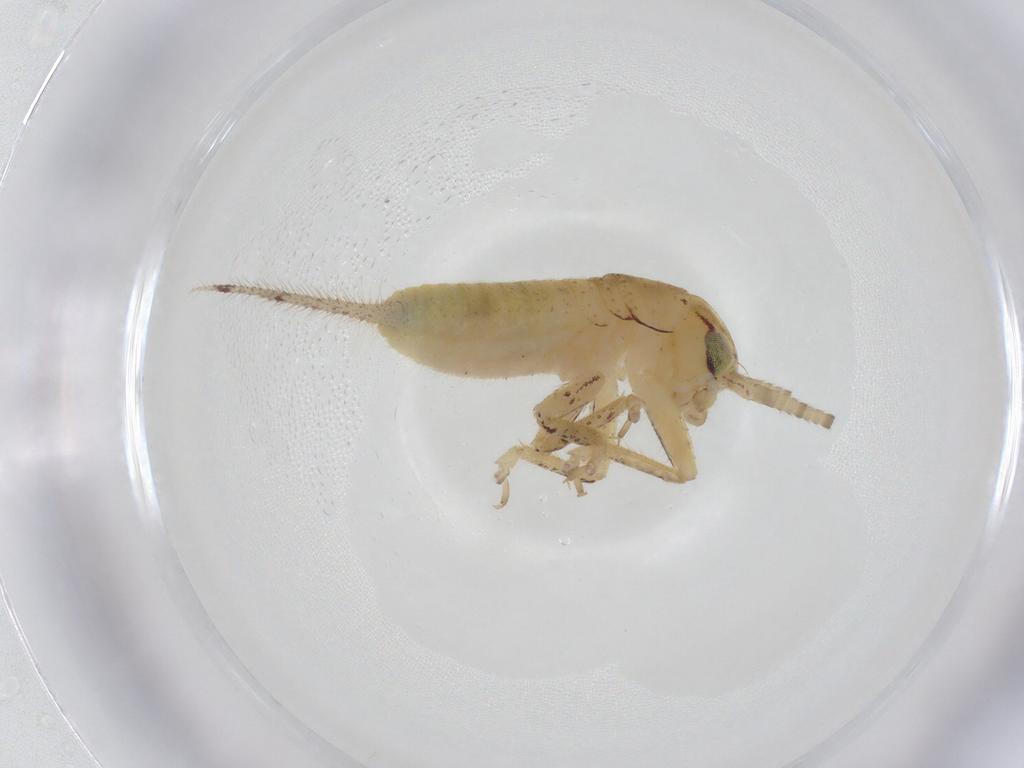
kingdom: Animalia
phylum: Arthropoda
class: Insecta
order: Orthoptera
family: Gryllidae
